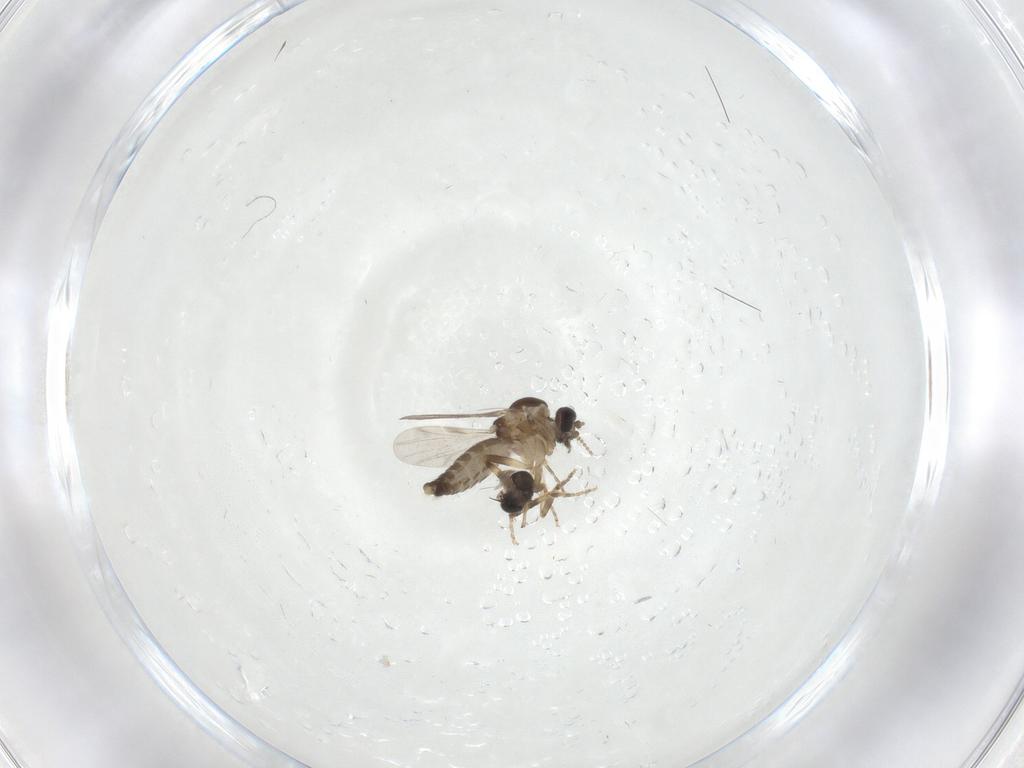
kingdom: Animalia
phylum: Arthropoda
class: Insecta
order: Diptera
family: Ceratopogonidae
